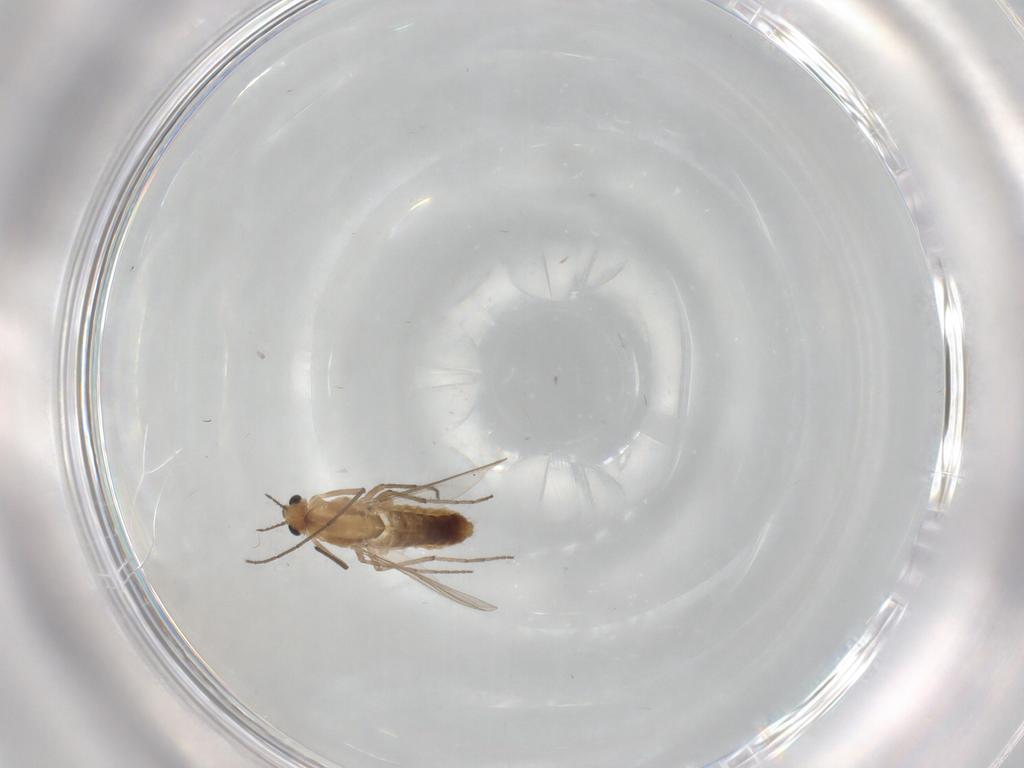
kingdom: Animalia
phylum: Arthropoda
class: Insecta
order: Diptera
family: Chironomidae
